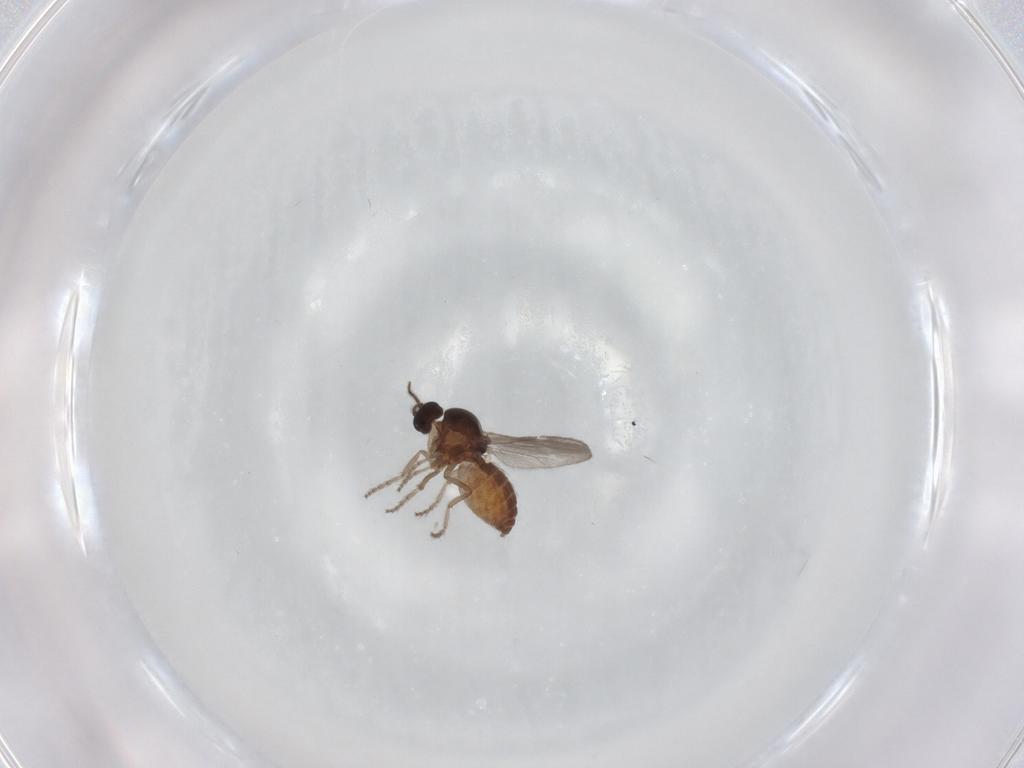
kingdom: Animalia
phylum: Arthropoda
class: Insecta
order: Diptera
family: Ceratopogonidae
